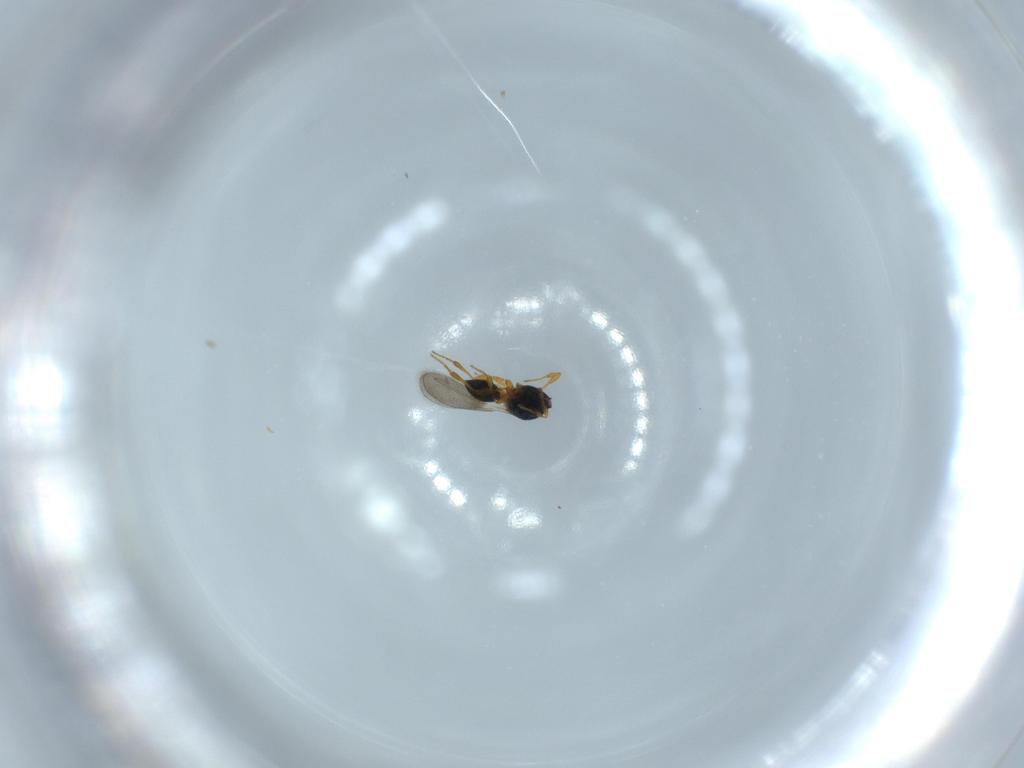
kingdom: Animalia
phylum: Arthropoda
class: Insecta
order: Hymenoptera
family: Platygastridae
